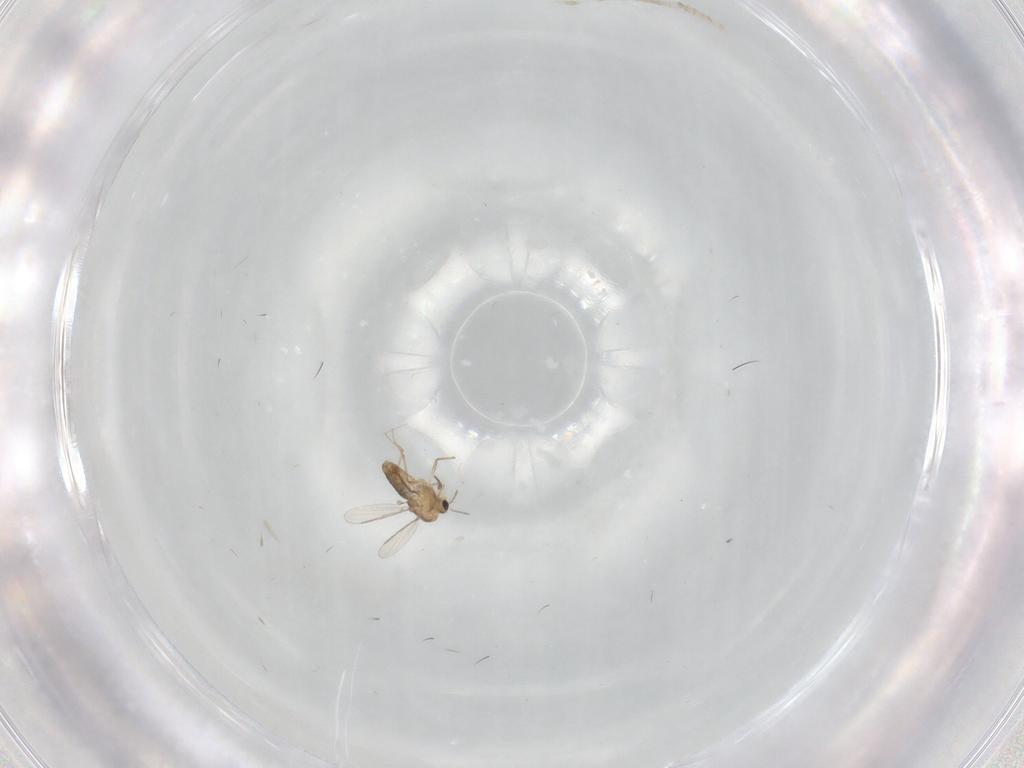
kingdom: Animalia
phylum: Arthropoda
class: Insecta
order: Diptera
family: Chironomidae
